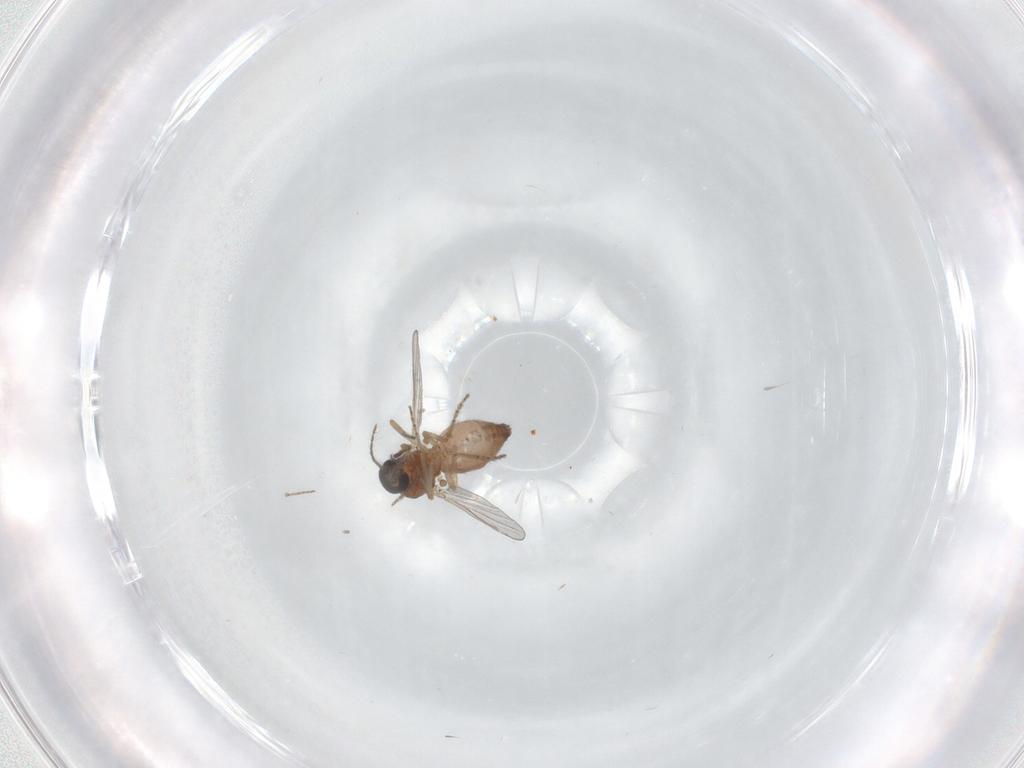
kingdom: Animalia
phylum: Arthropoda
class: Insecta
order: Diptera
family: Ceratopogonidae
